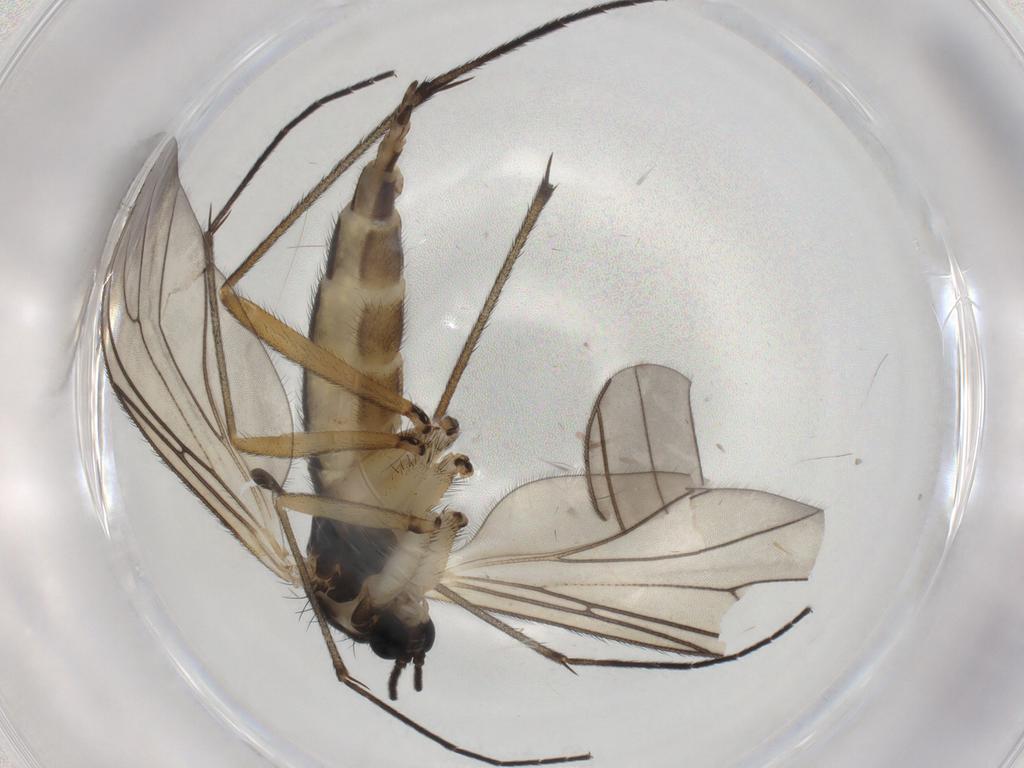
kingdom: Animalia
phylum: Arthropoda
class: Insecta
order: Diptera
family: Sciaridae
